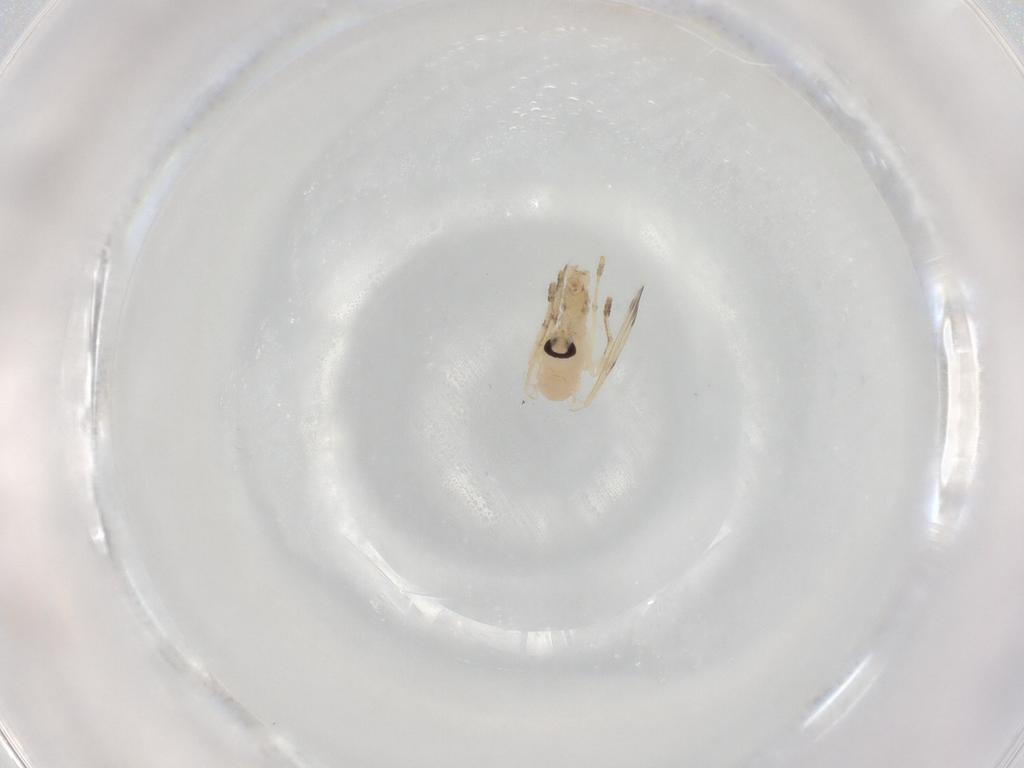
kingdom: Animalia
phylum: Arthropoda
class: Insecta
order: Diptera
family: Psychodidae
